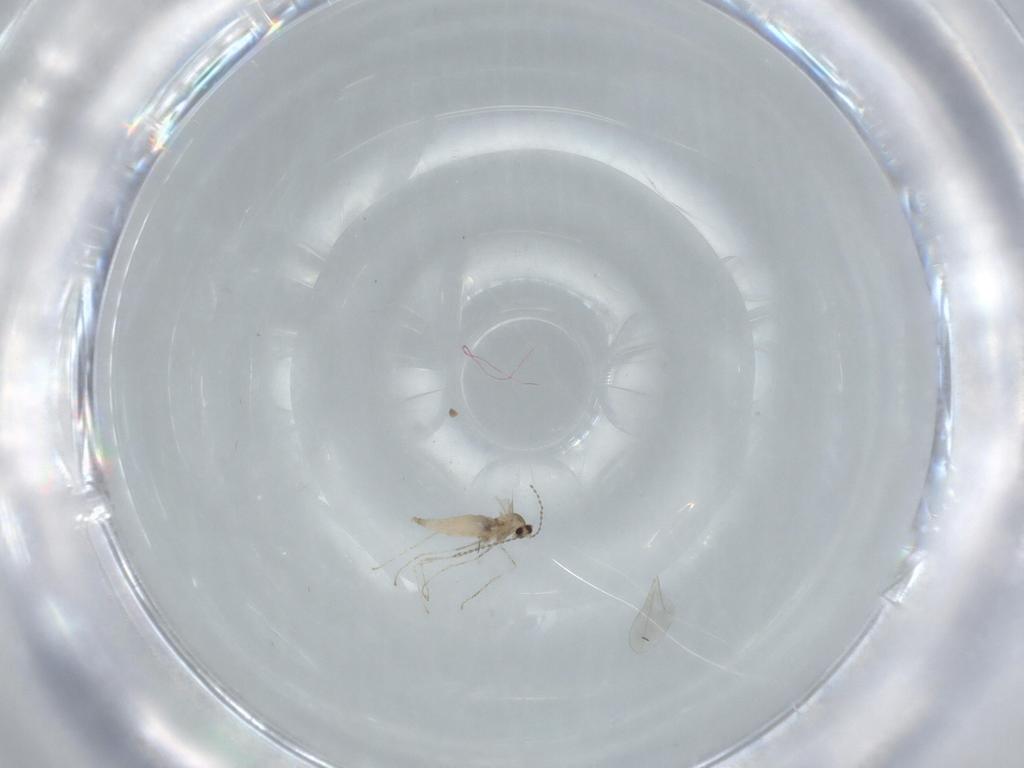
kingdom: Animalia
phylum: Arthropoda
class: Insecta
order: Diptera
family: Cecidomyiidae
